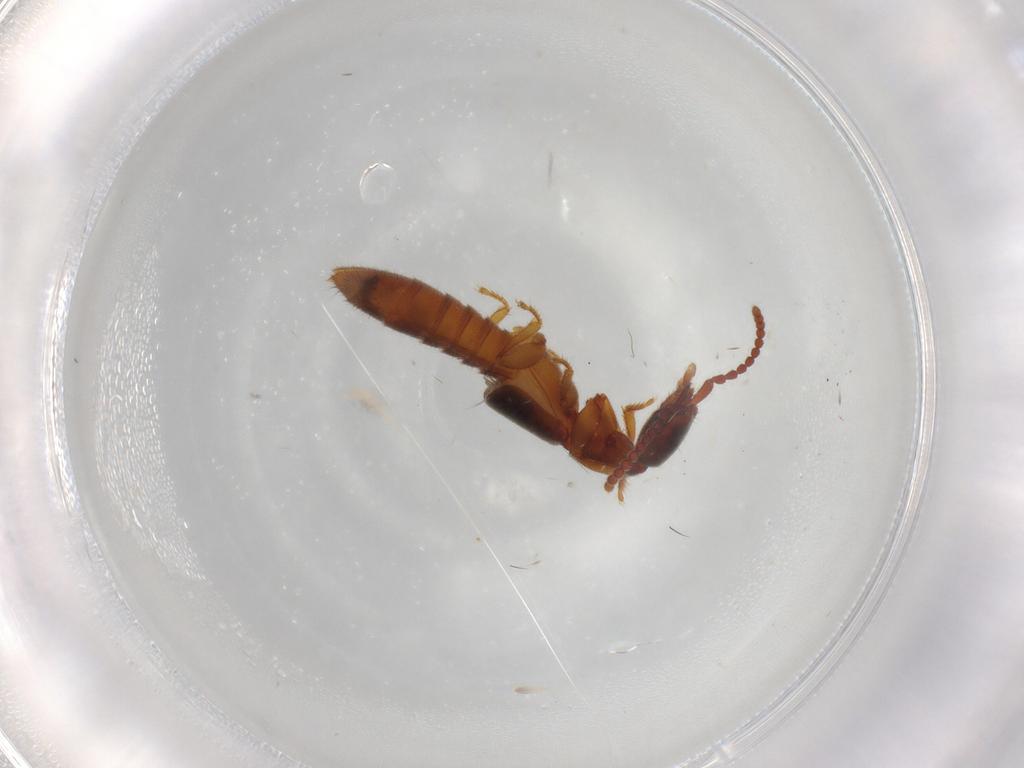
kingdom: Animalia
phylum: Arthropoda
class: Insecta
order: Coleoptera
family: Staphylinidae
